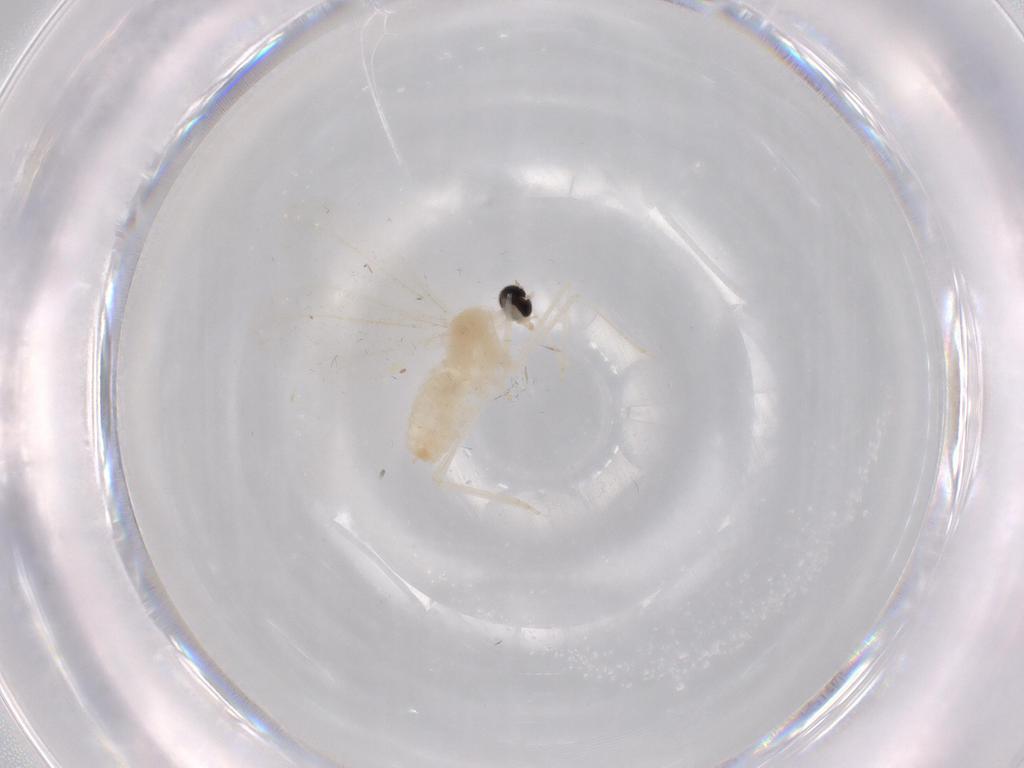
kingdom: Animalia
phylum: Arthropoda
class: Insecta
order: Diptera
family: Cecidomyiidae
